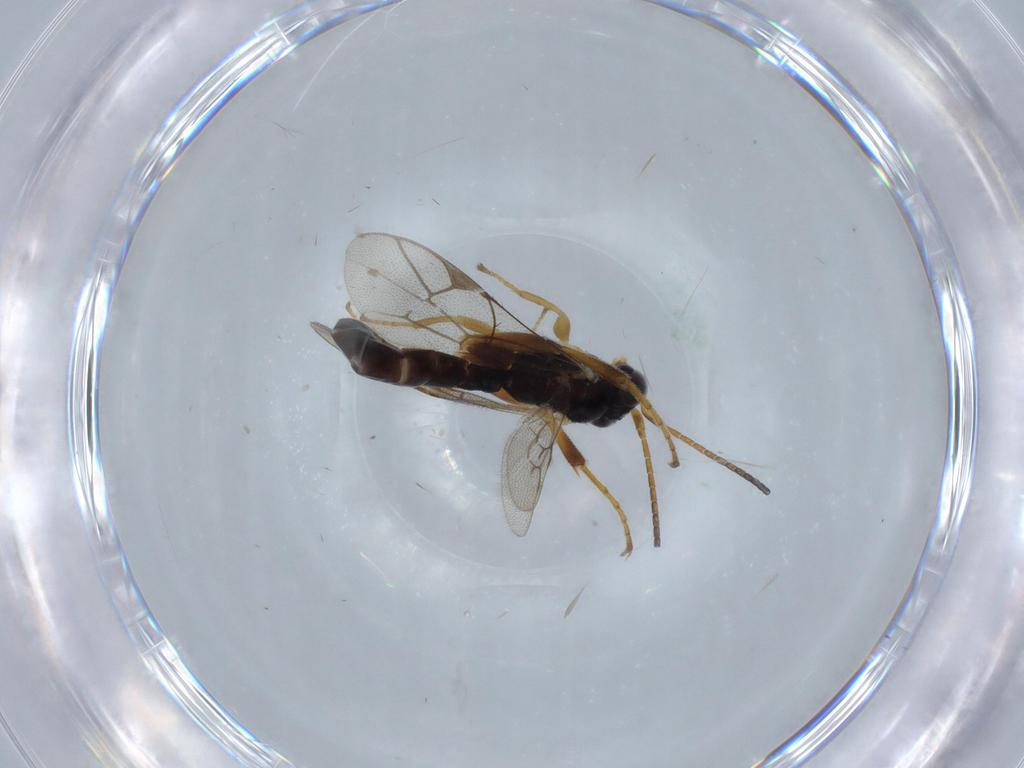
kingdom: Animalia
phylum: Arthropoda
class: Insecta
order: Hymenoptera
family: Ichneumonidae
